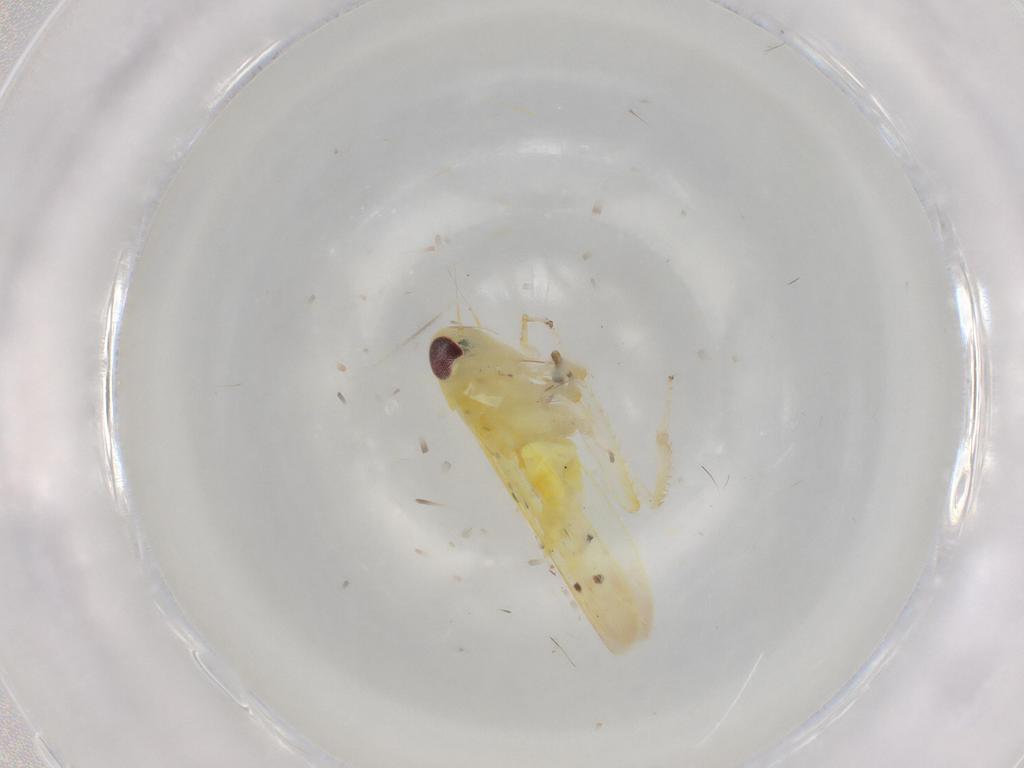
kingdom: Animalia
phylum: Arthropoda
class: Insecta
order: Hemiptera
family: Cicadellidae
